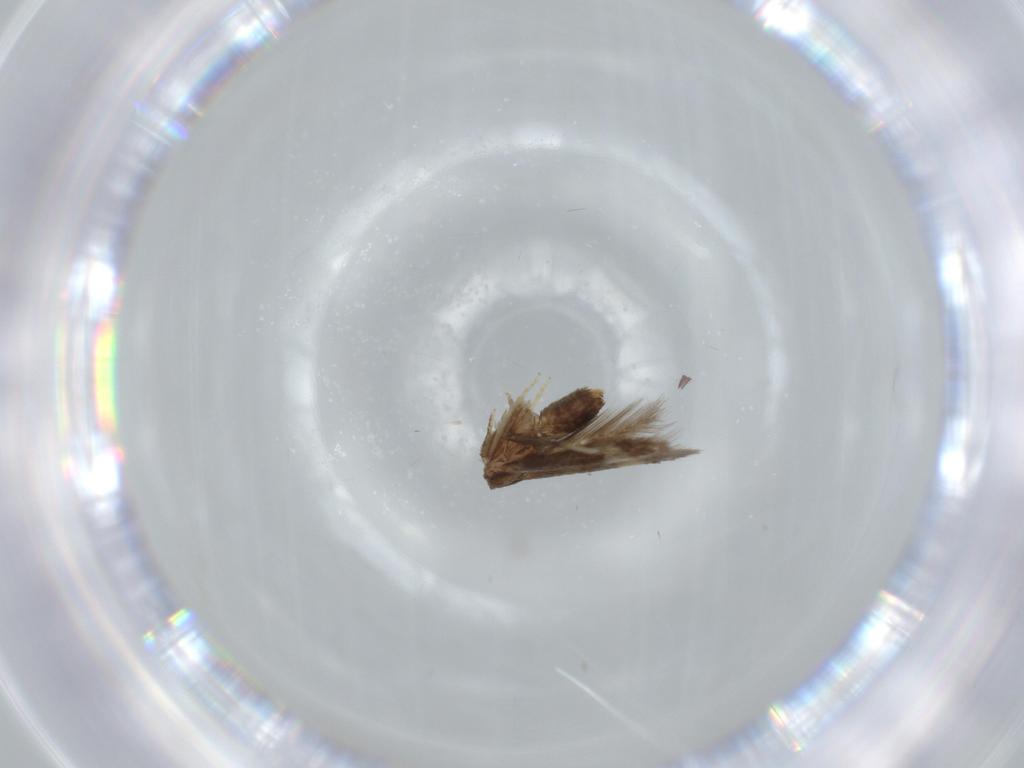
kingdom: Animalia
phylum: Arthropoda
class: Insecta
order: Lepidoptera
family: Nepticulidae
